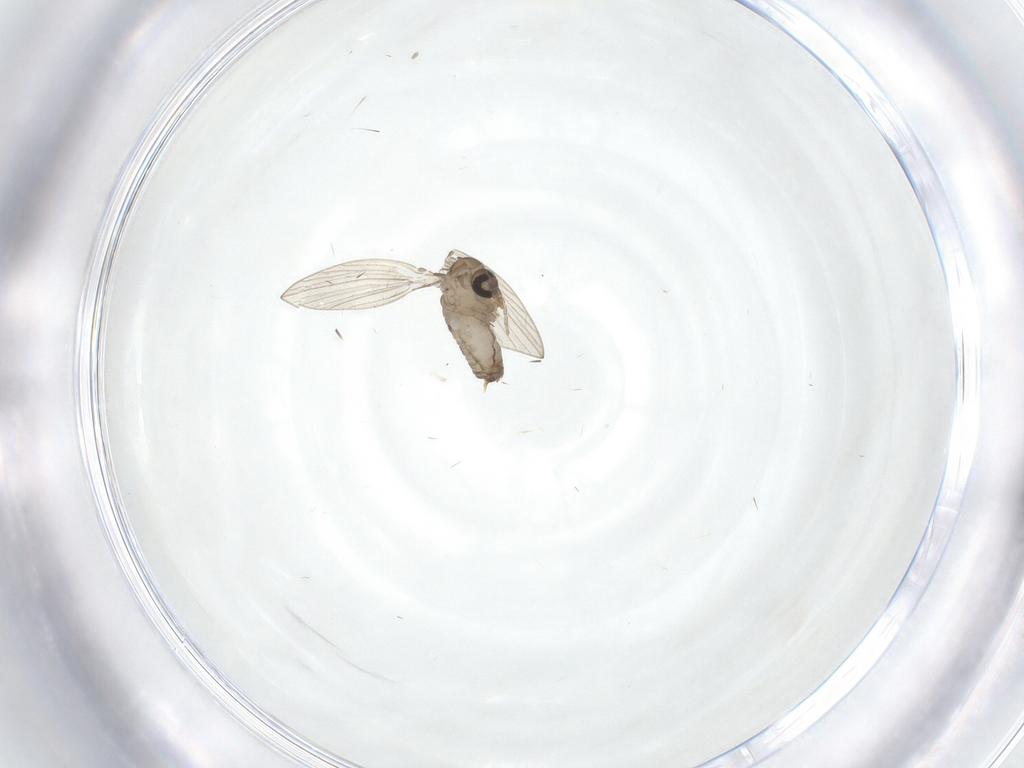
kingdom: Animalia
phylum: Arthropoda
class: Insecta
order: Diptera
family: Psychodidae
